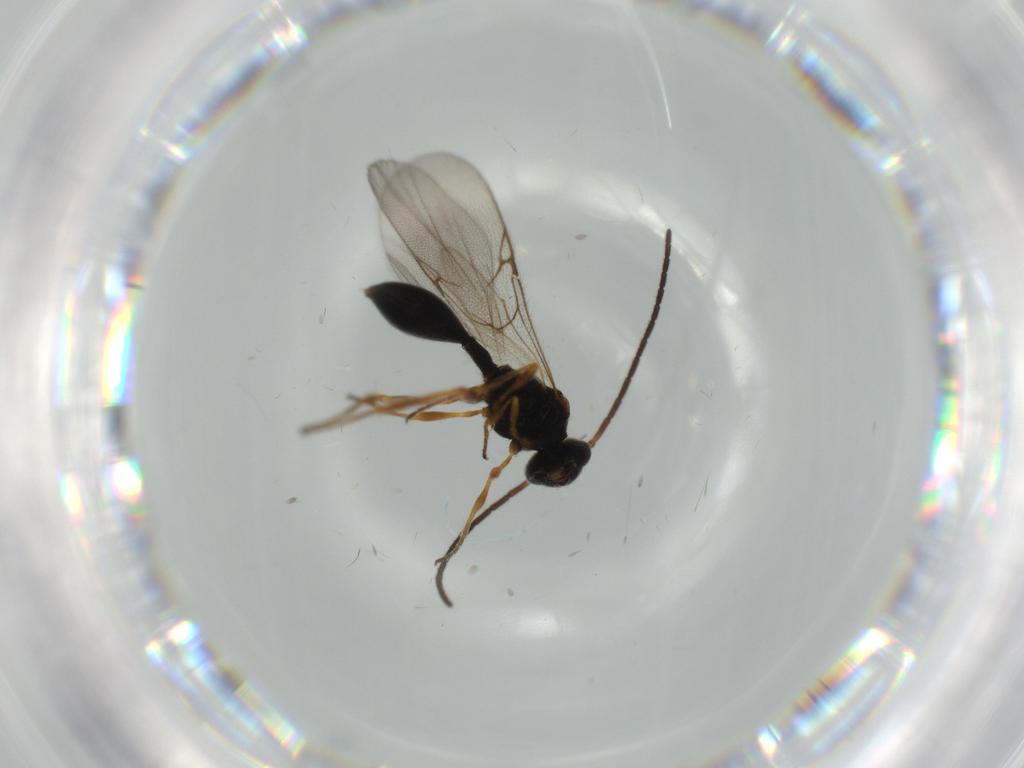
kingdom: Animalia
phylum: Arthropoda
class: Insecta
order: Hymenoptera
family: Diapriidae
